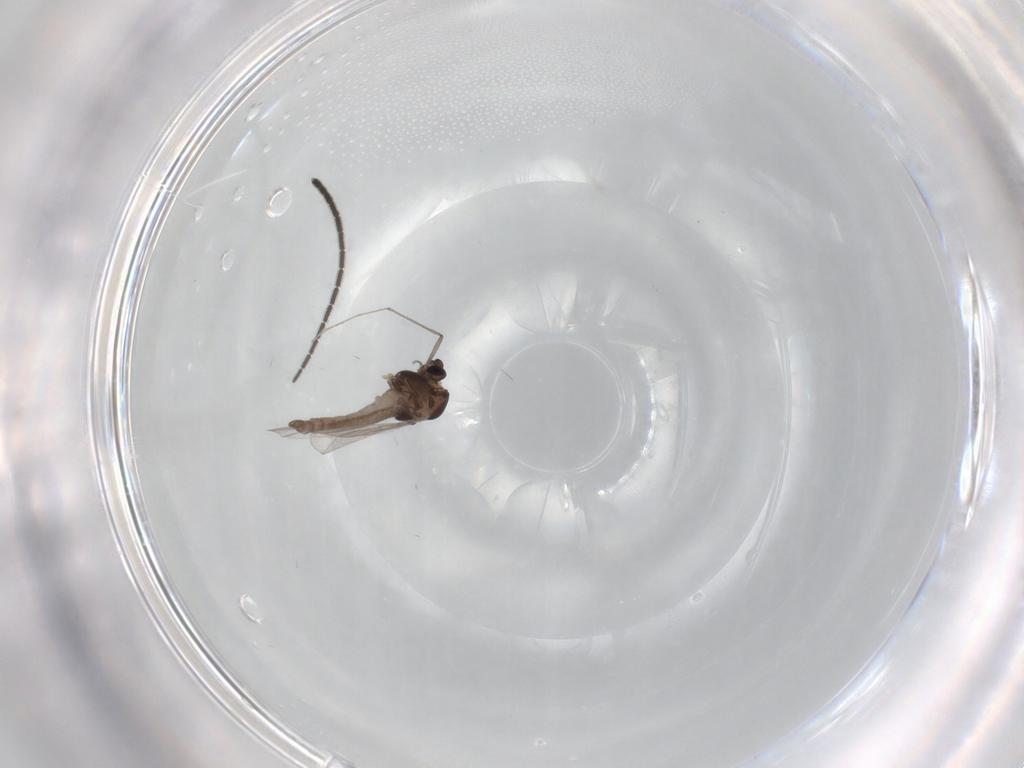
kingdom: Animalia
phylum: Arthropoda
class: Insecta
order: Diptera
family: Chironomidae
